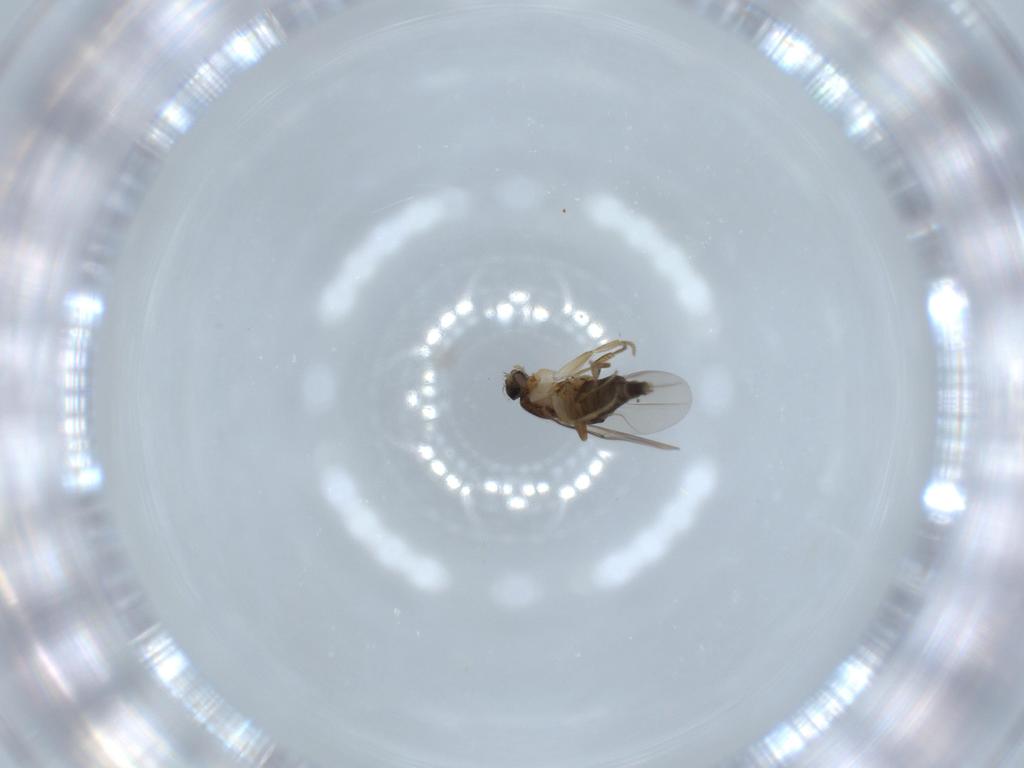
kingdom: Animalia
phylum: Arthropoda
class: Insecta
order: Diptera
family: Phoridae
